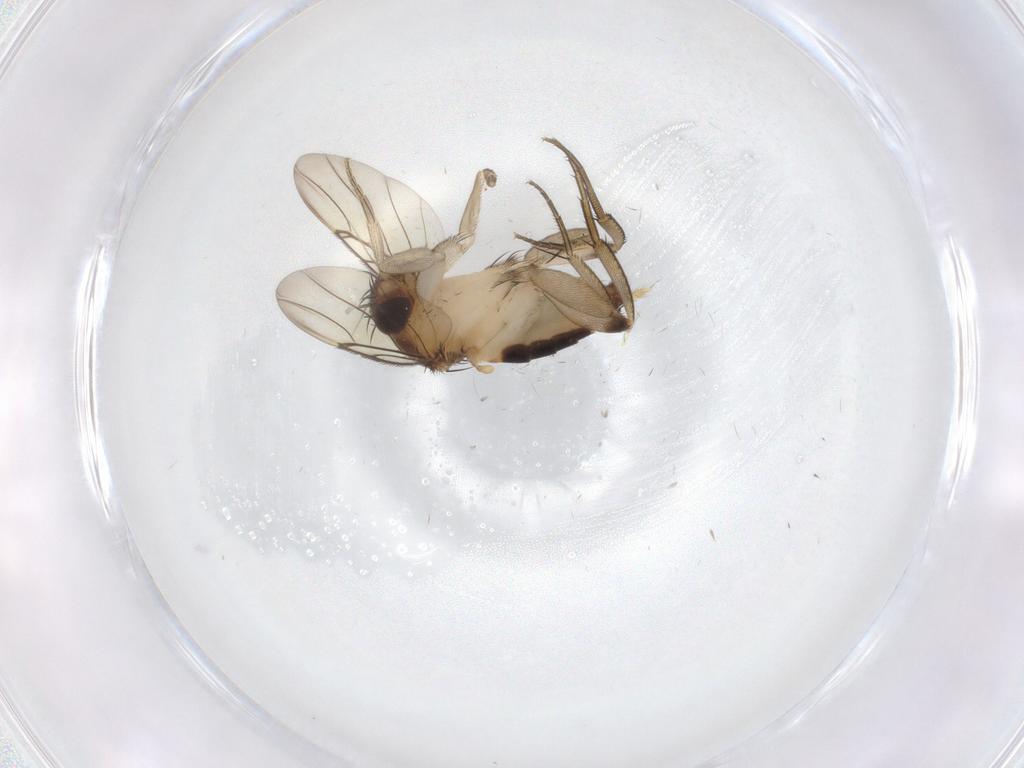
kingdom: Animalia
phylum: Arthropoda
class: Insecta
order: Diptera
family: Phoridae
